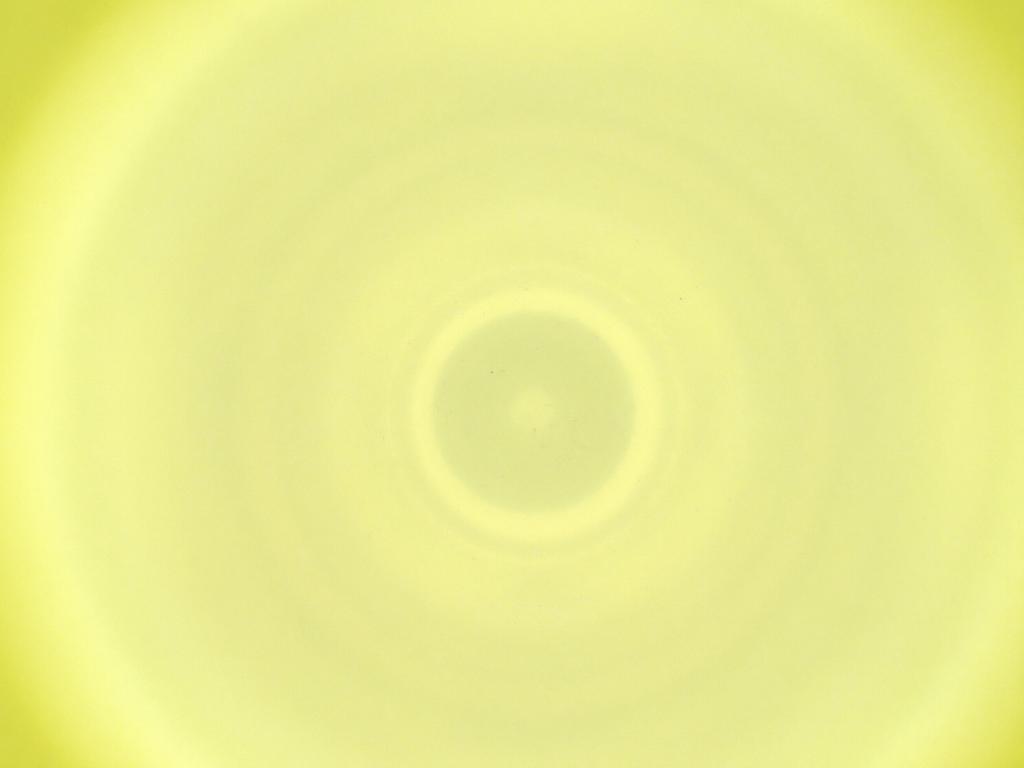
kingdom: Animalia
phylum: Arthropoda
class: Insecta
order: Diptera
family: Cecidomyiidae
